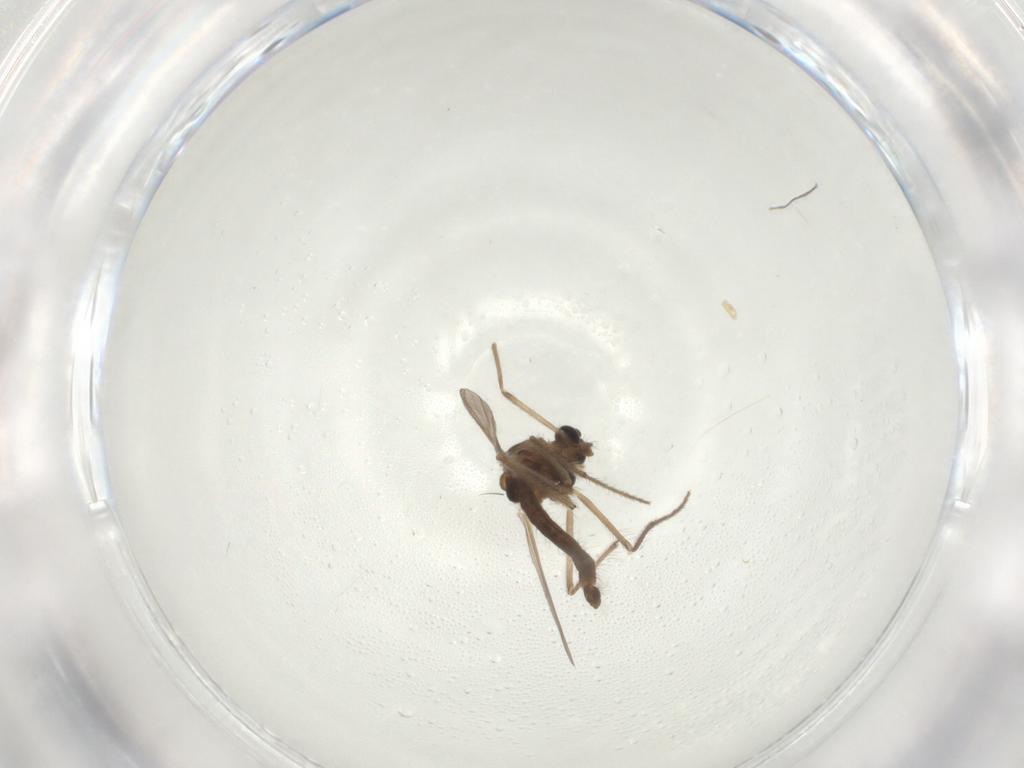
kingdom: Animalia
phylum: Arthropoda
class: Insecta
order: Diptera
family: Chironomidae
